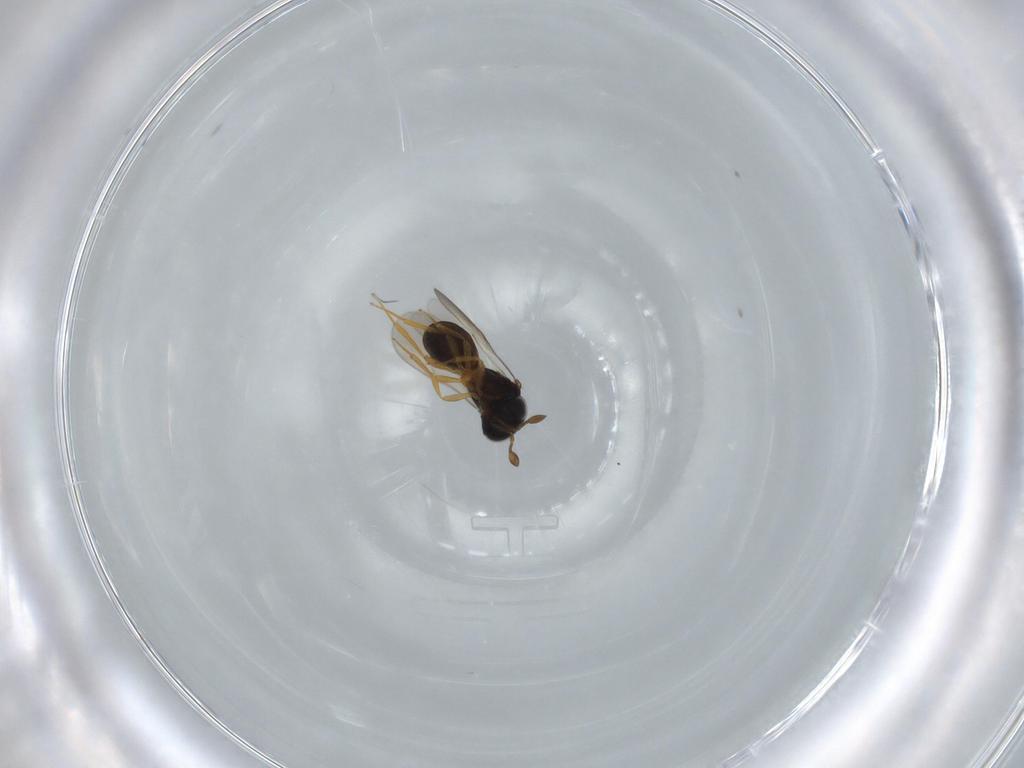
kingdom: Animalia
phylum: Arthropoda
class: Insecta
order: Hymenoptera
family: Scelionidae
